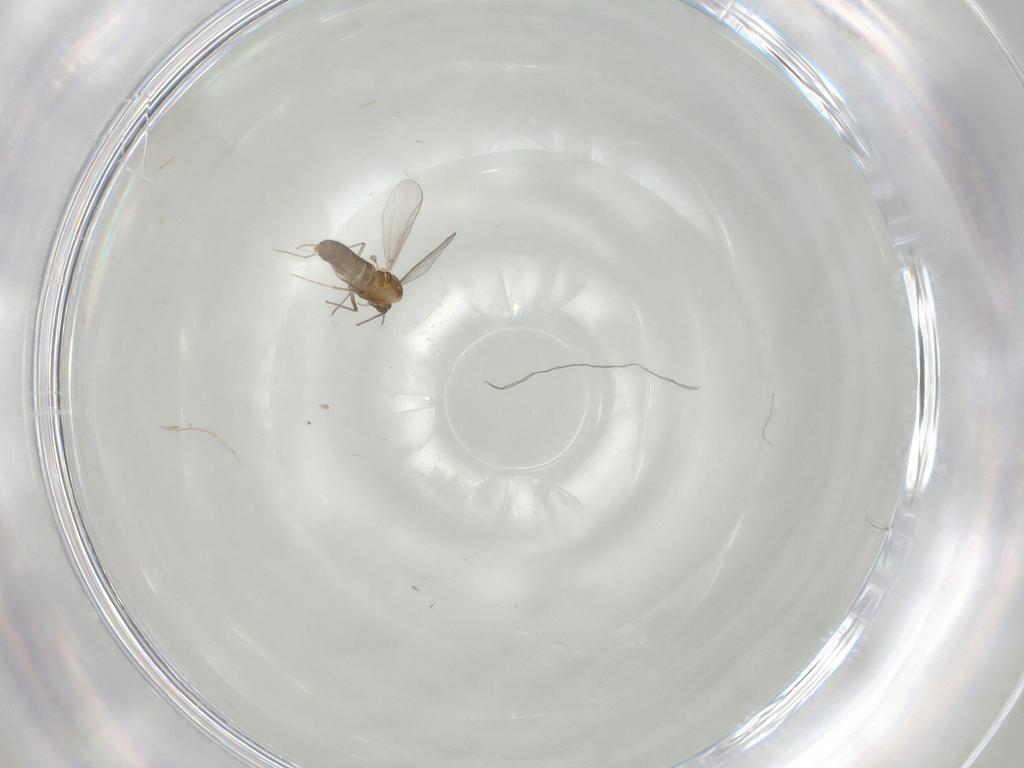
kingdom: Animalia
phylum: Arthropoda
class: Insecta
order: Diptera
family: Chironomidae
